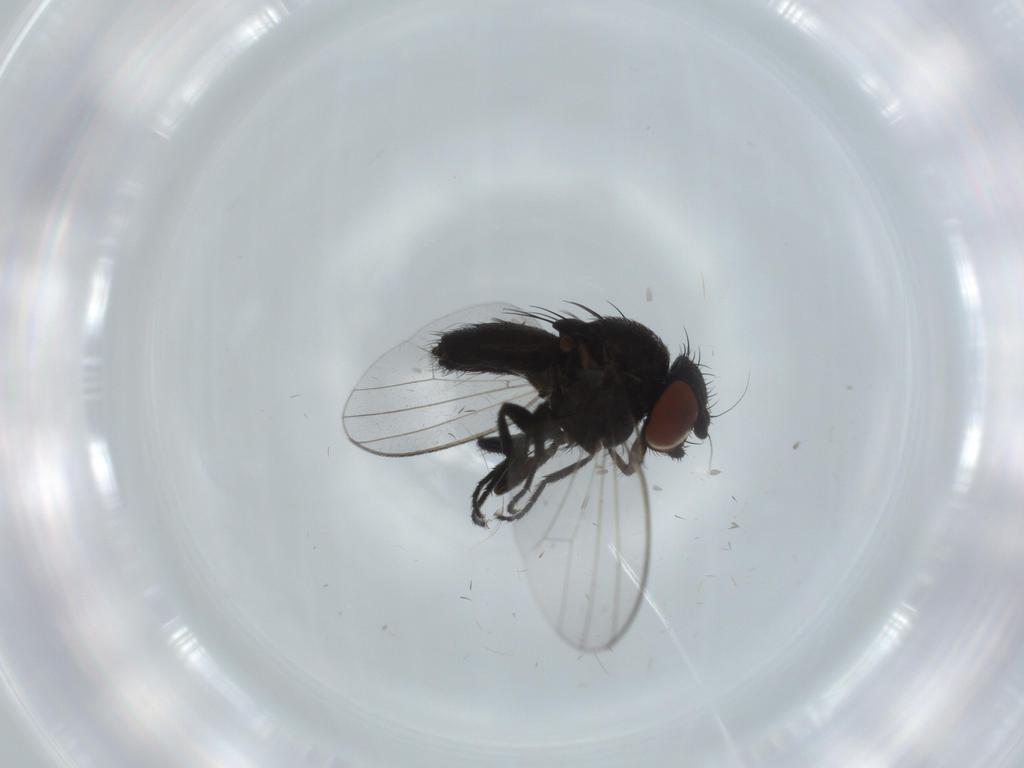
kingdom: Animalia
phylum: Arthropoda
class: Insecta
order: Diptera
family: Milichiidae
